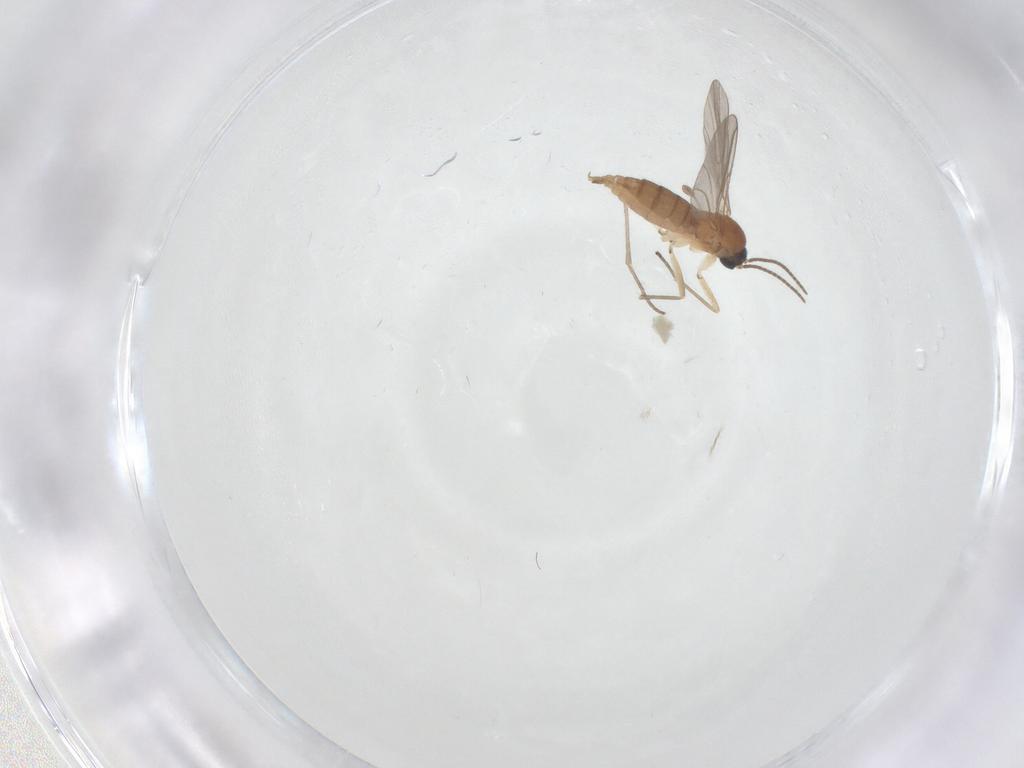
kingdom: Animalia
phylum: Arthropoda
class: Insecta
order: Diptera
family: Sciaridae
